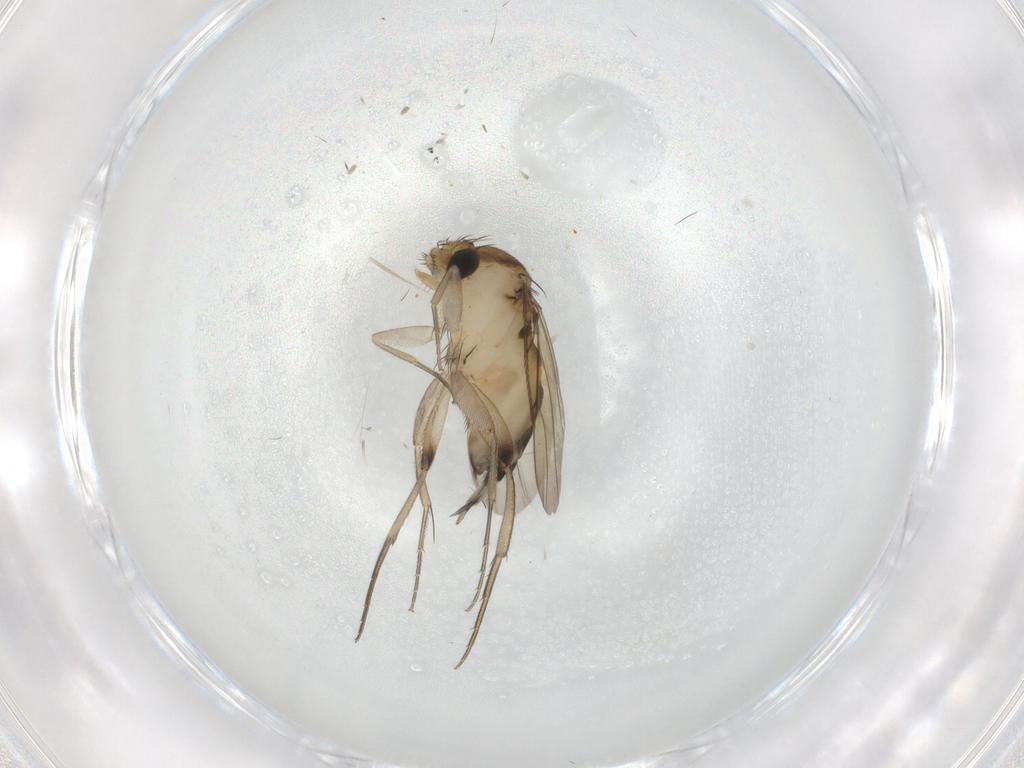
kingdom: Animalia
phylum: Arthropoda
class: Insecta
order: Diptera
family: Phoridae
